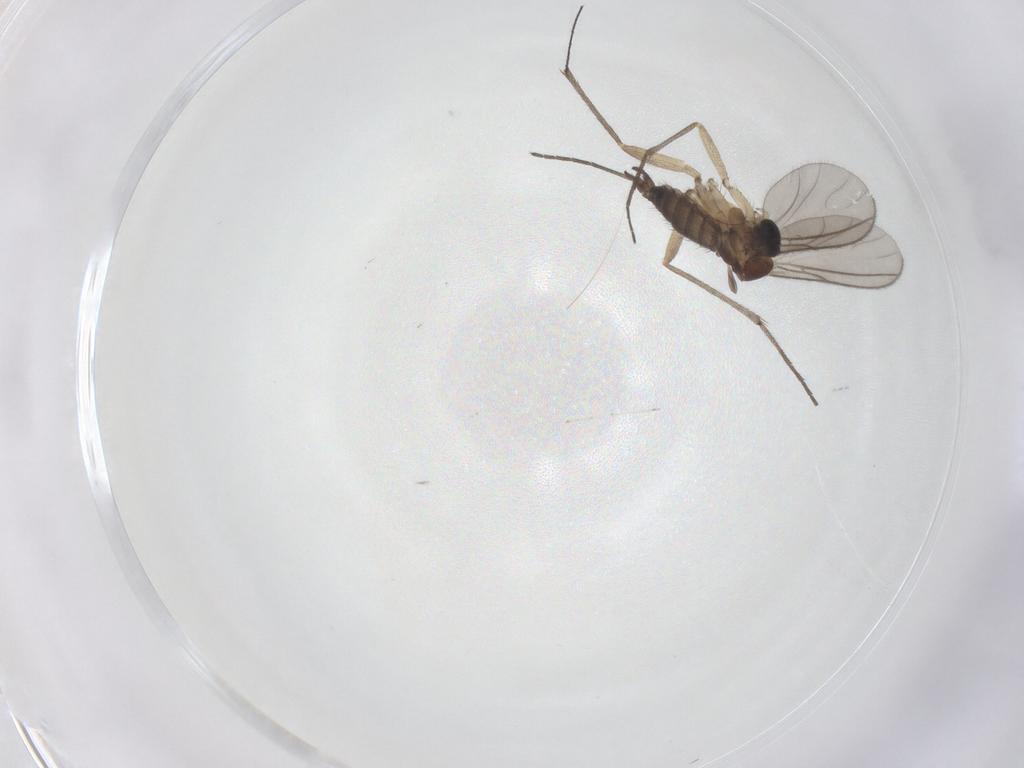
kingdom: Animalia
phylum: Arthropoda
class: Insecta
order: Diptera
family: Sciaridae
